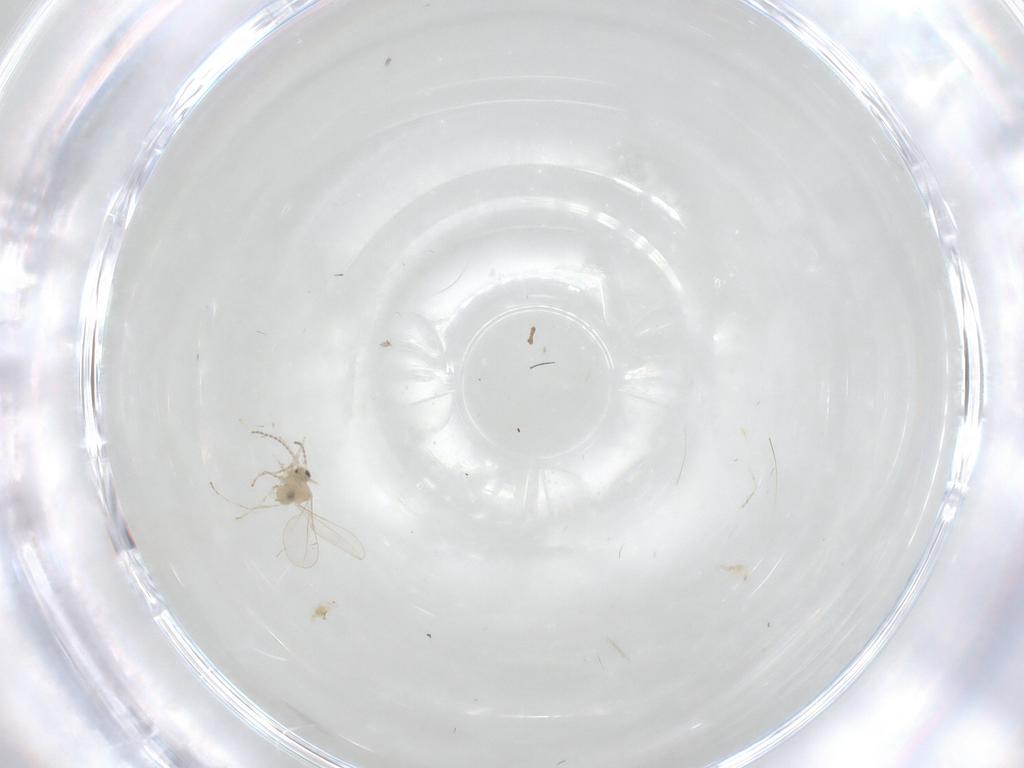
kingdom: Animalia
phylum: Arthropoda
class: Insecta
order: Diptera
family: Cecidomyiidae
